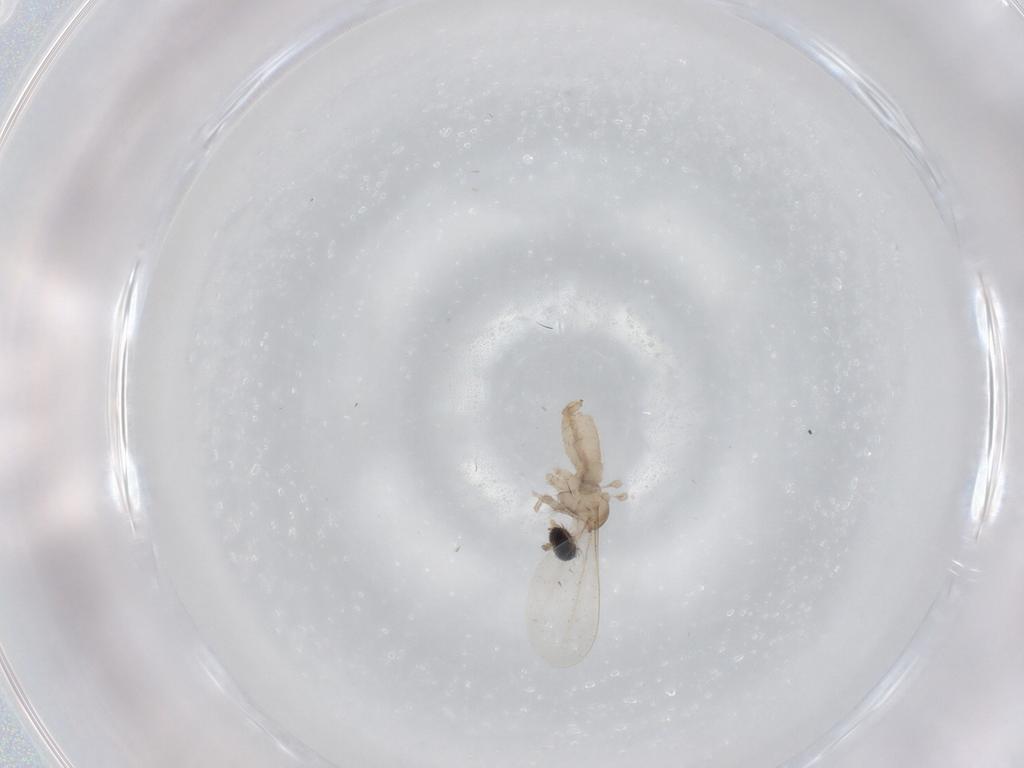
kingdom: Animalia
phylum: Arthropoda
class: Insecta
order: Diptera
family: Cecidomyiidae
